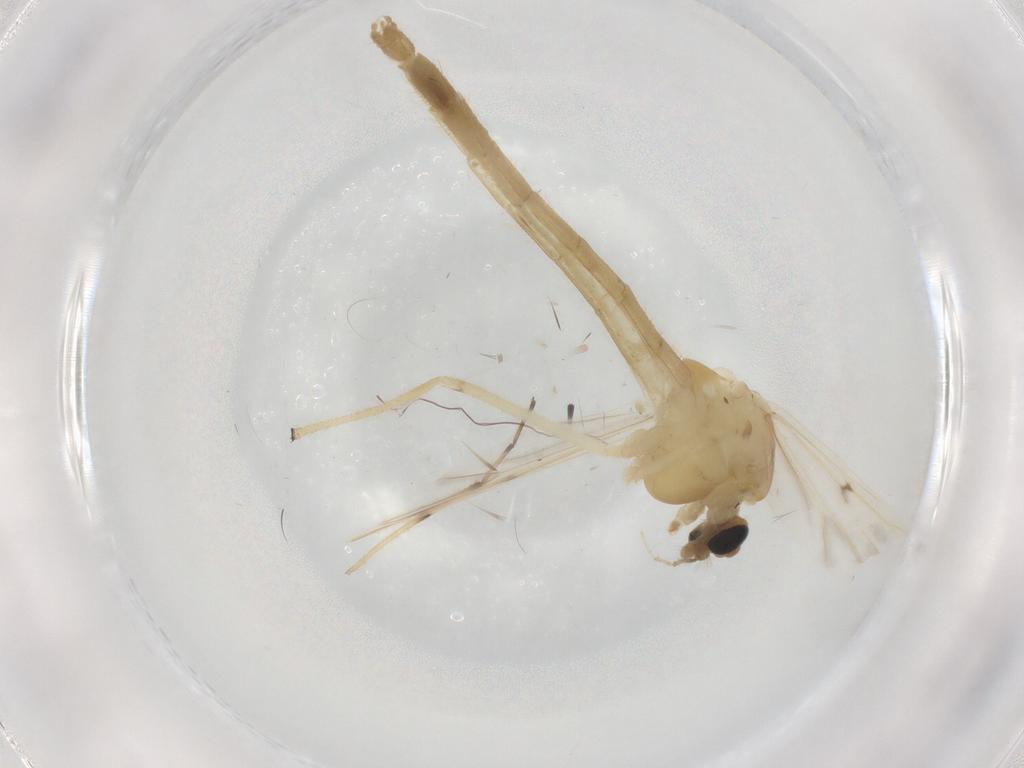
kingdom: Animalia
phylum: Arthropoda
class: Insecta
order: Diptera
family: Chironomidae
